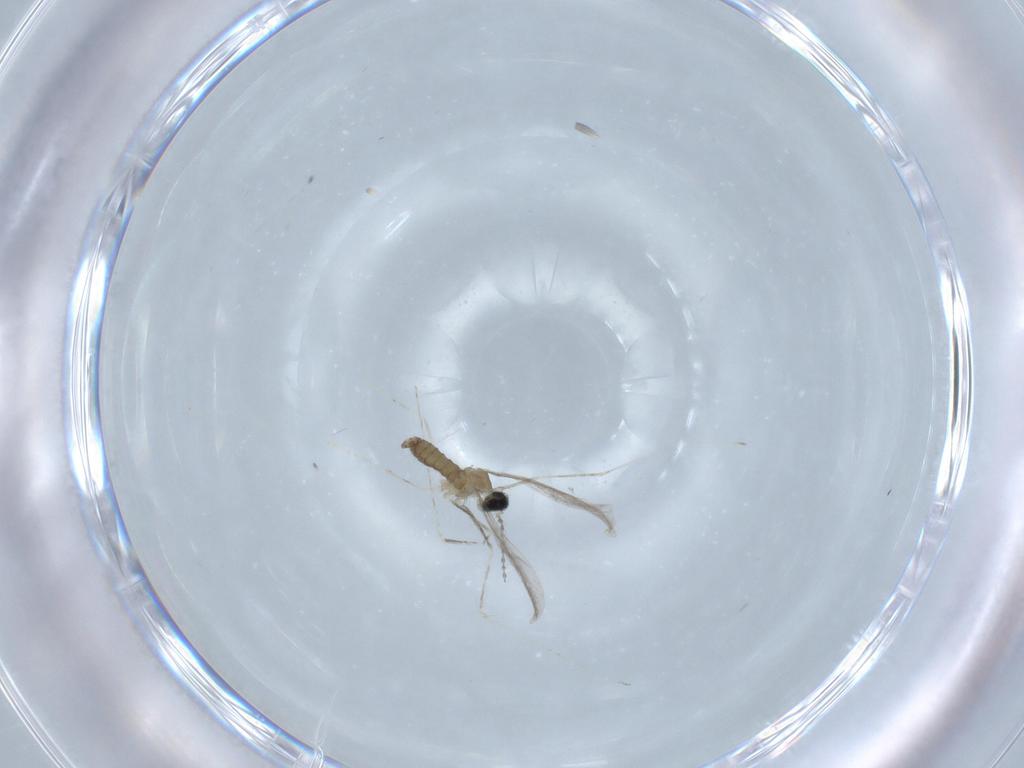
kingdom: Animalia
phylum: Arthropoda
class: Insecta
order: Diptera
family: Cecidomyiidae
